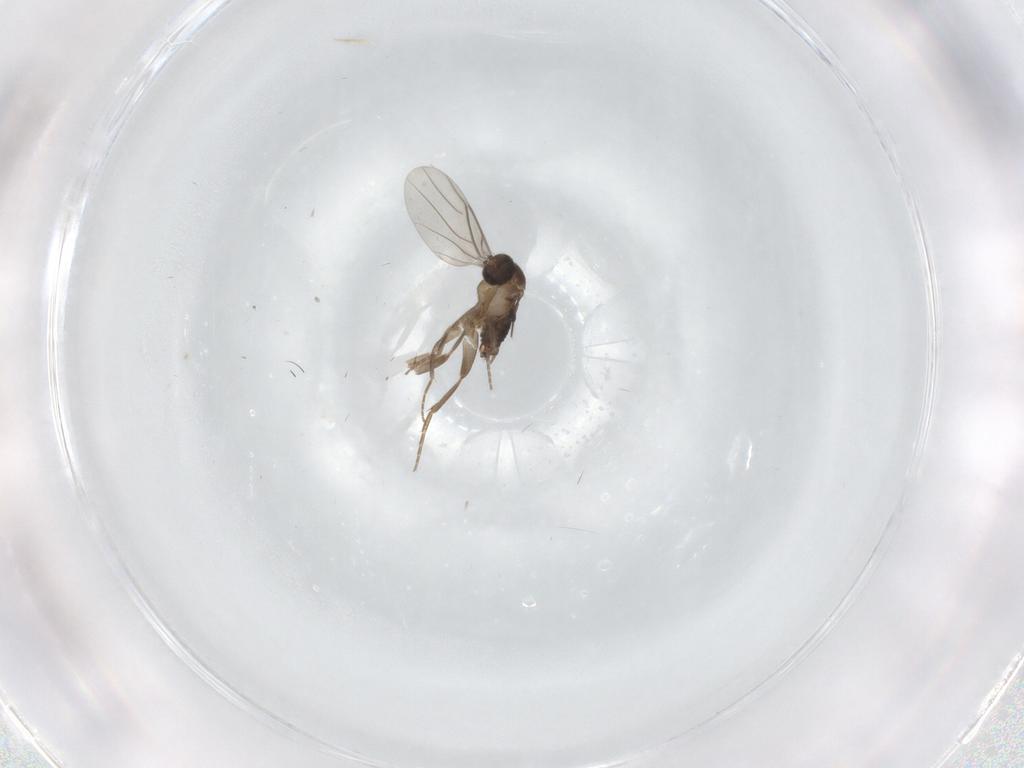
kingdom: Animalia
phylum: Arthropoda
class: Insecta
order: Diptera
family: Phoridae
